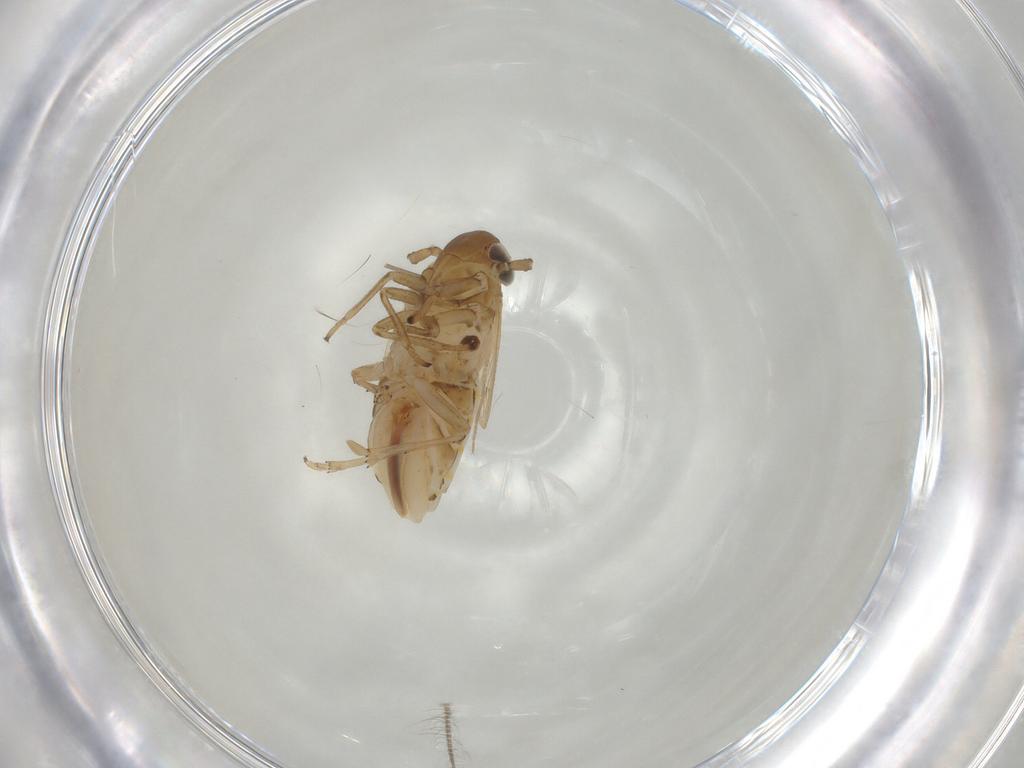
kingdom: Animalia
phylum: Arthropoda
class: Insecta
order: Hemiptera
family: Delphacidae
